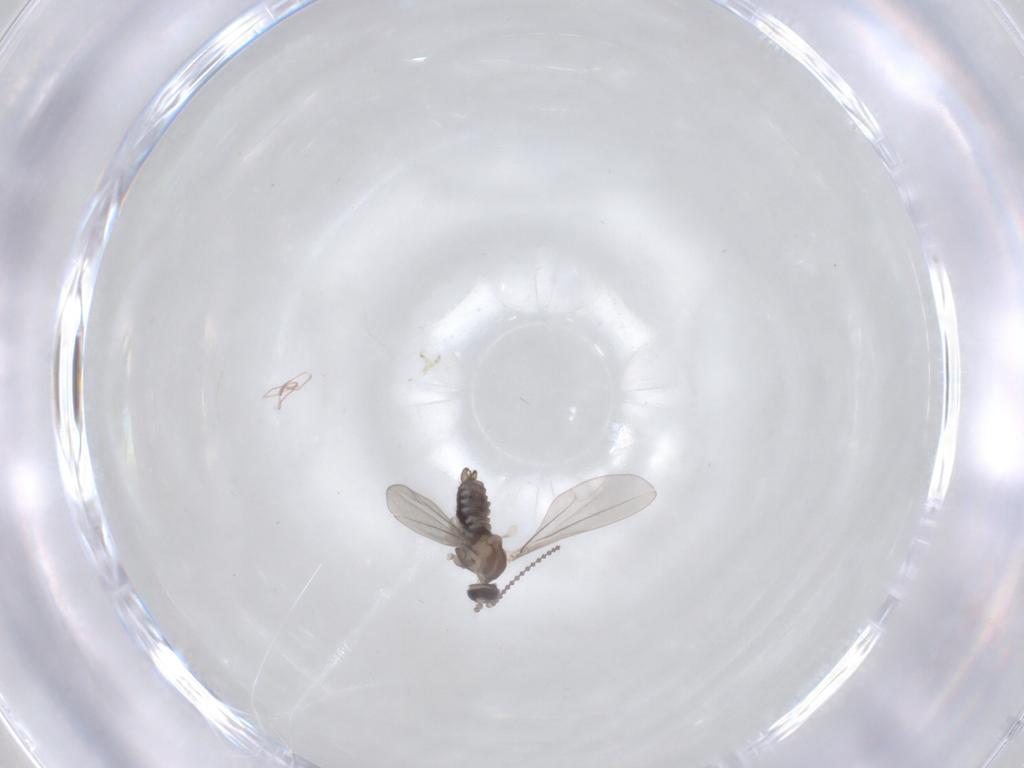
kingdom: Animalia
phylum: Arthropoda
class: Insecta
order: Diptera
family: Cecidomyiidae
